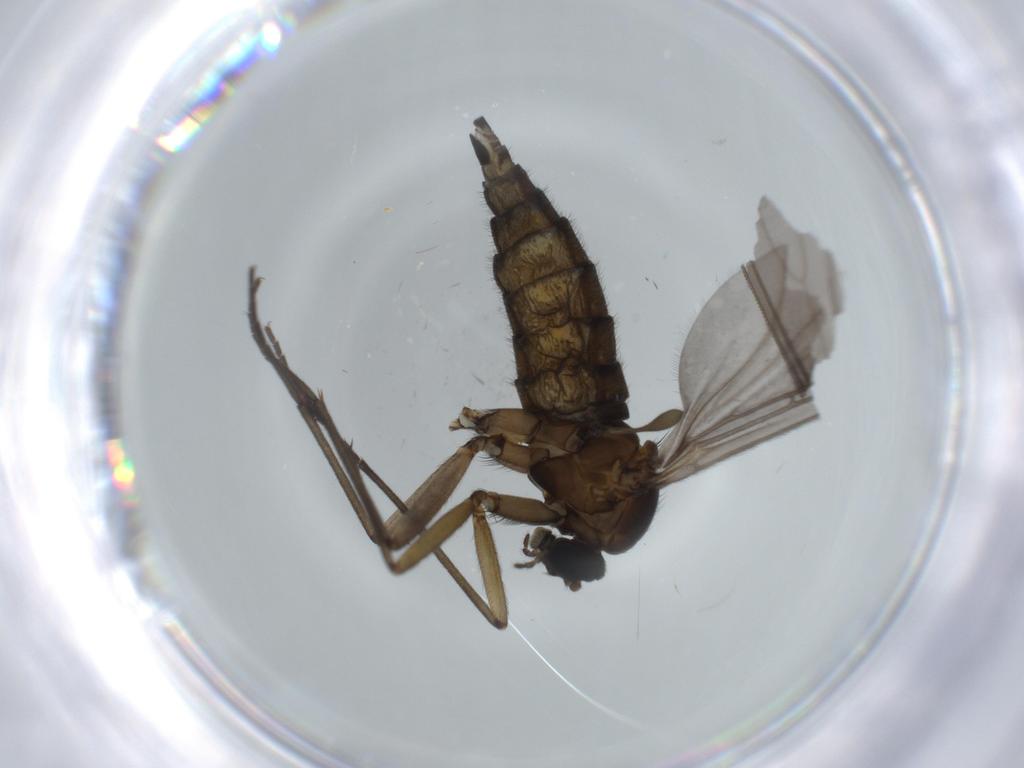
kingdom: Animalia
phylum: Arthropoda
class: Insecta
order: Diptera
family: Sciaridae
